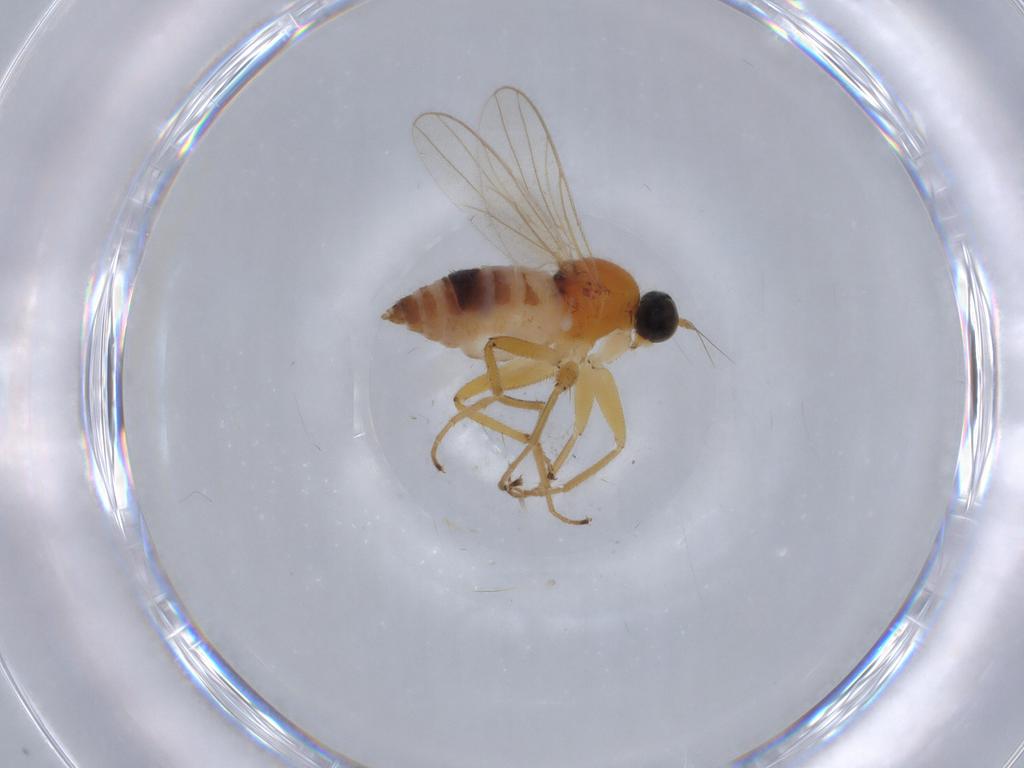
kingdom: Animalia
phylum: Arthropoda
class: Insecta
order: Diptera
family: Hybotidae
